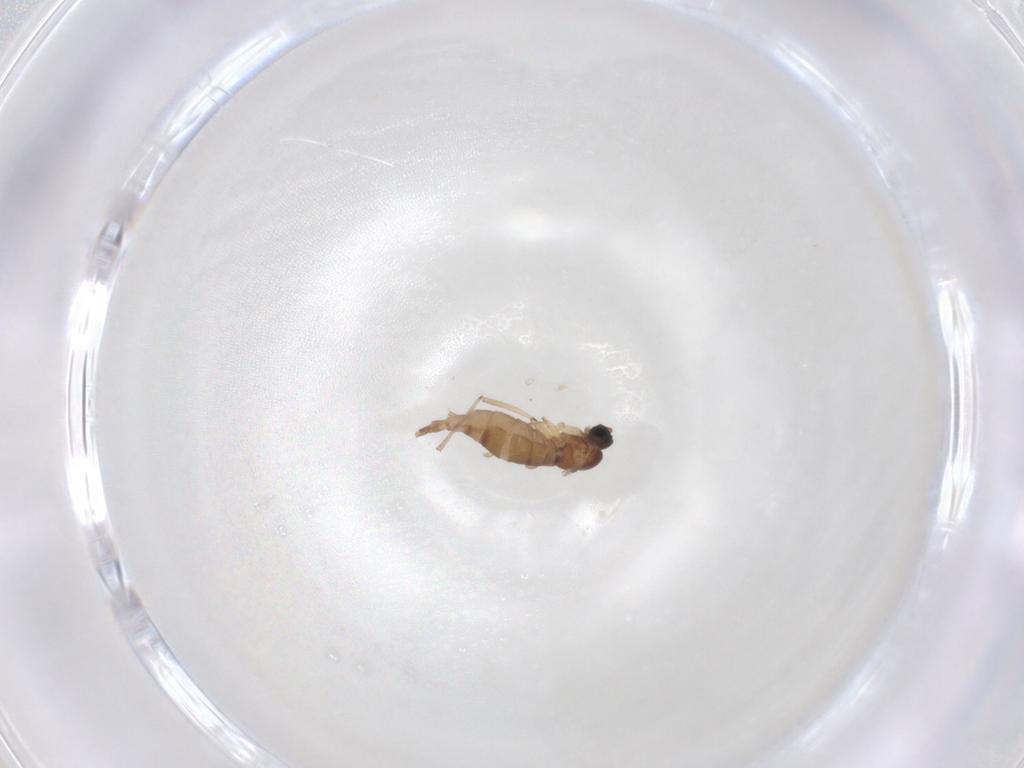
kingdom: Animalia
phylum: Arthropoda
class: Insecta
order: Diptera
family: Sciaridae
